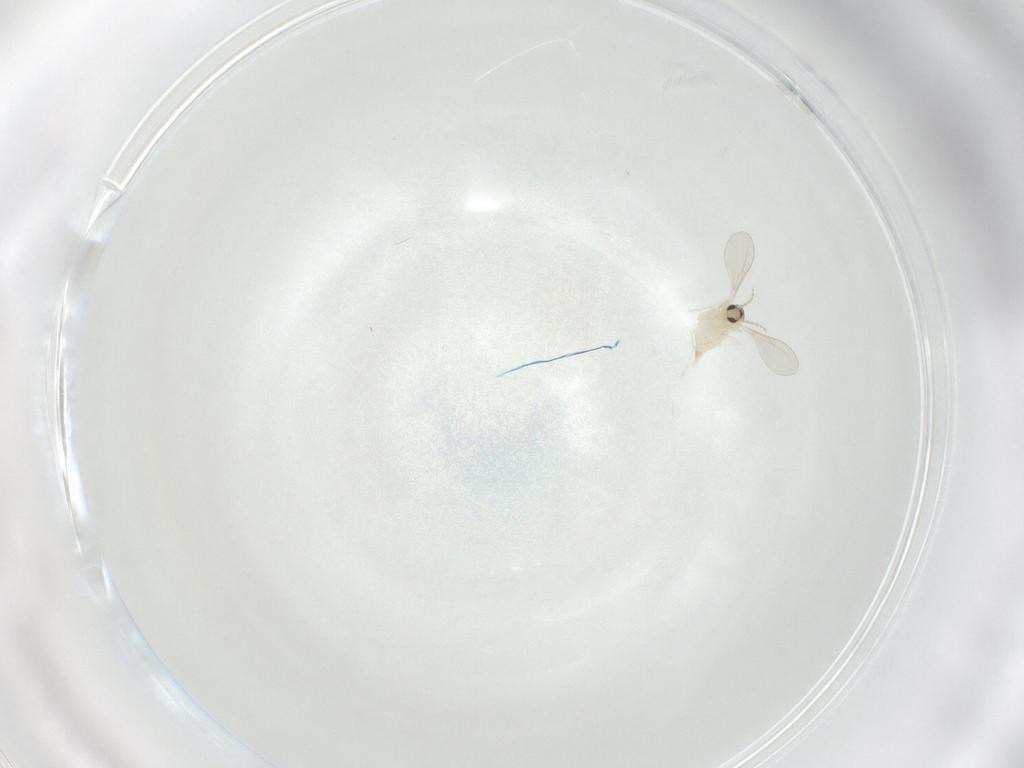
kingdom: Animalia
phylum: Arthropoda
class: Insecta
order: Diptera
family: Cecidomyiidae
